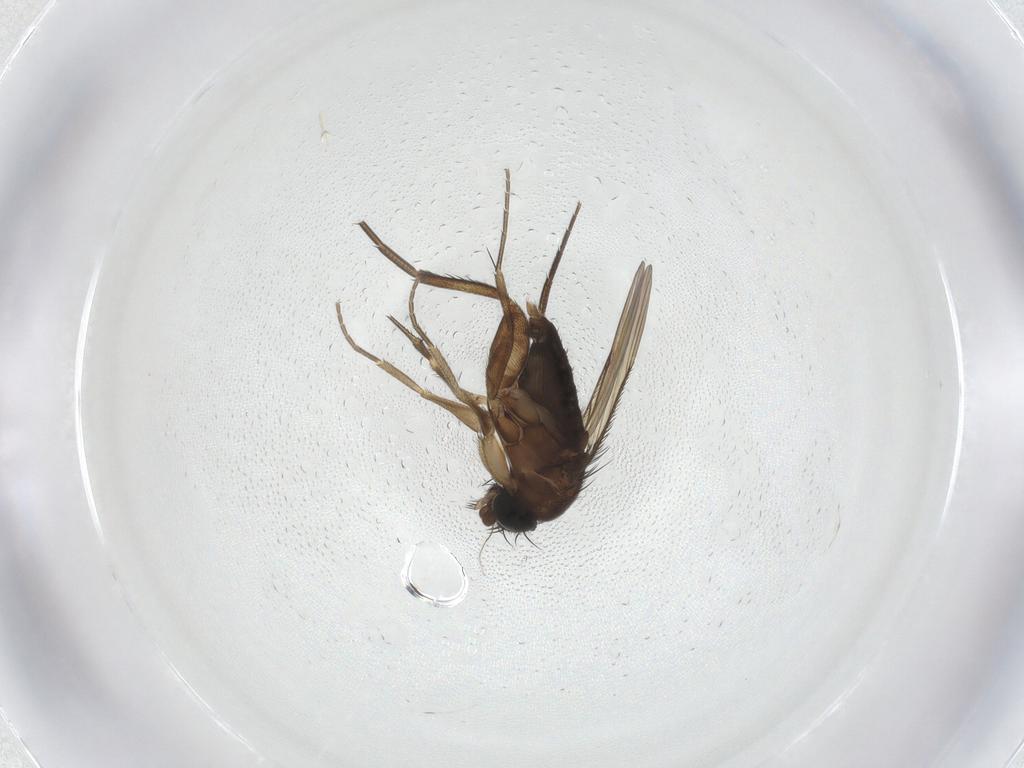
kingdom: Animalia
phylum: Arthropoda
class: Insecta
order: Diptera
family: Phoridae
